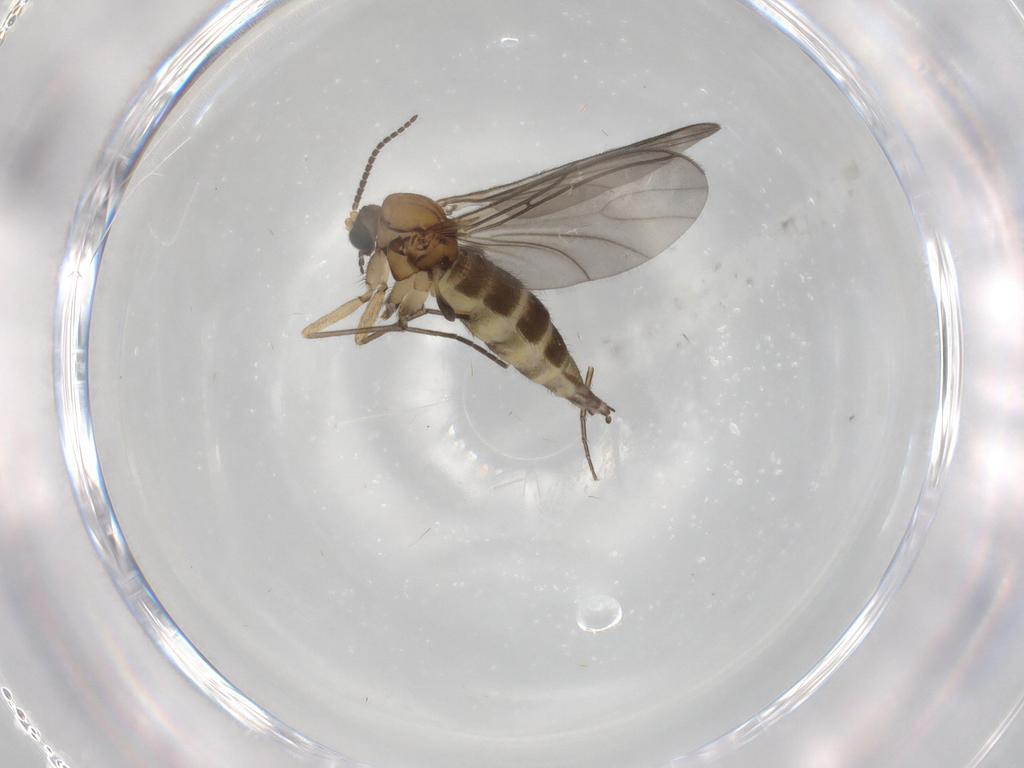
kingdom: Animalia
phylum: Arthropoda
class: Insecta
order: Diptera
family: Sciaridae
